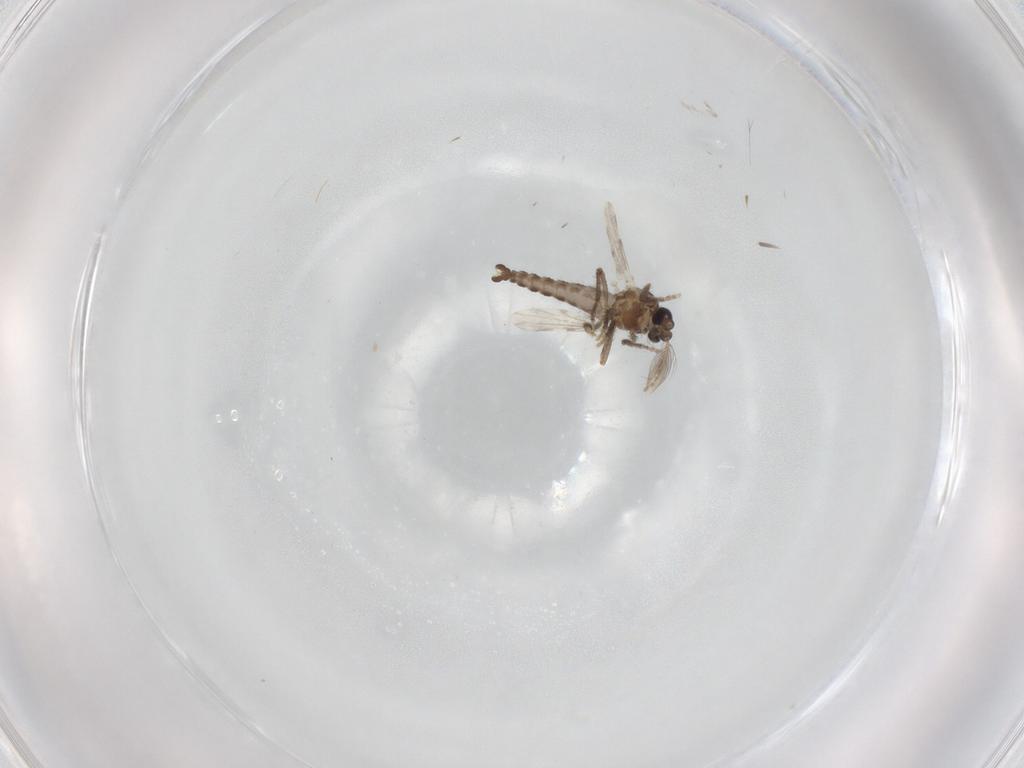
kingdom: Animalia
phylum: Arthropoda
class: Insecta
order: Diptera
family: Ceratopogonidae
